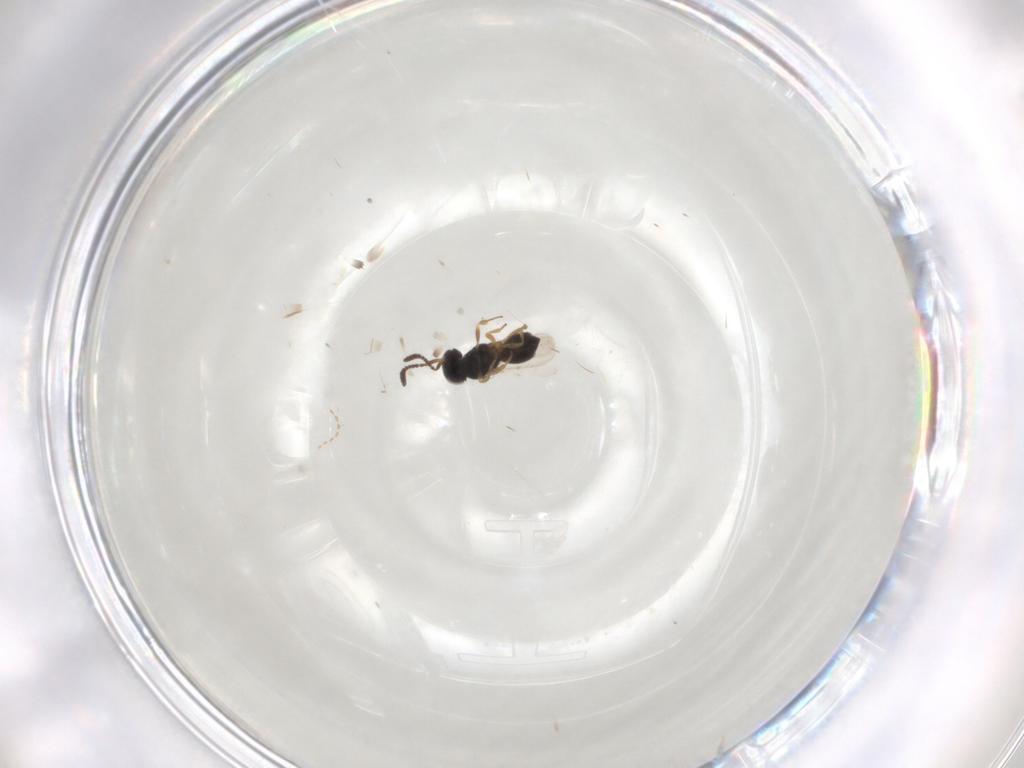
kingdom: Animalia
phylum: Arthropoda
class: Insecta
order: Hymenoptera
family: Scelionidae
